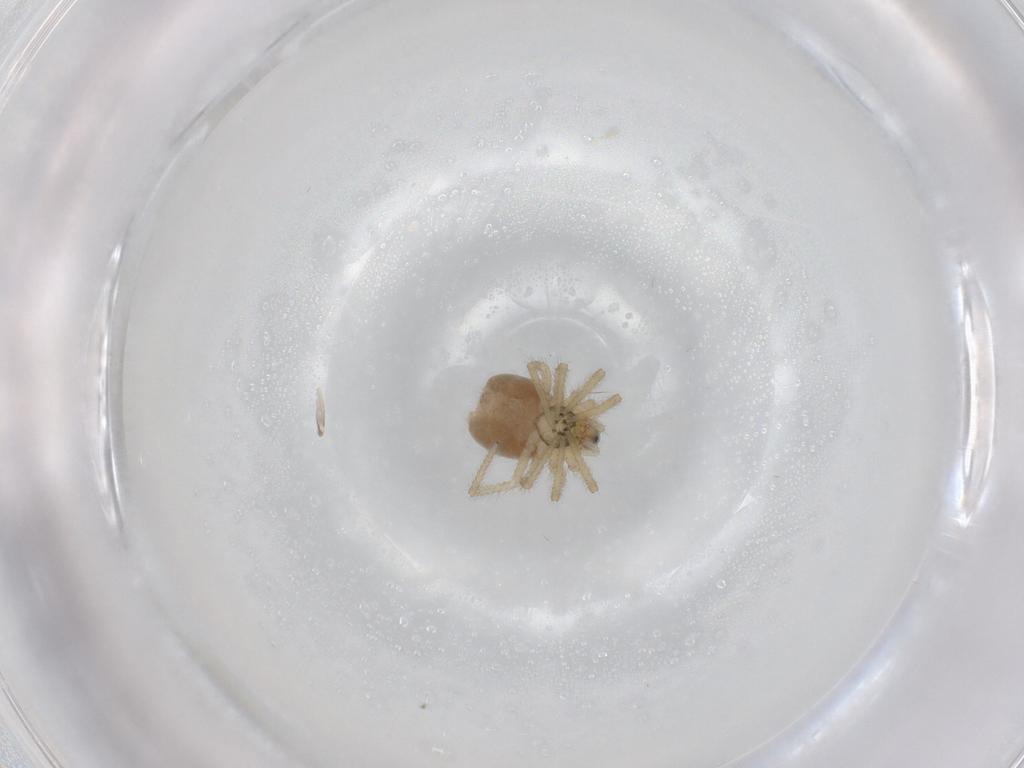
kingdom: Animalia
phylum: Arthropoda
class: Arachnida
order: Araneae
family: Linyphiidae
